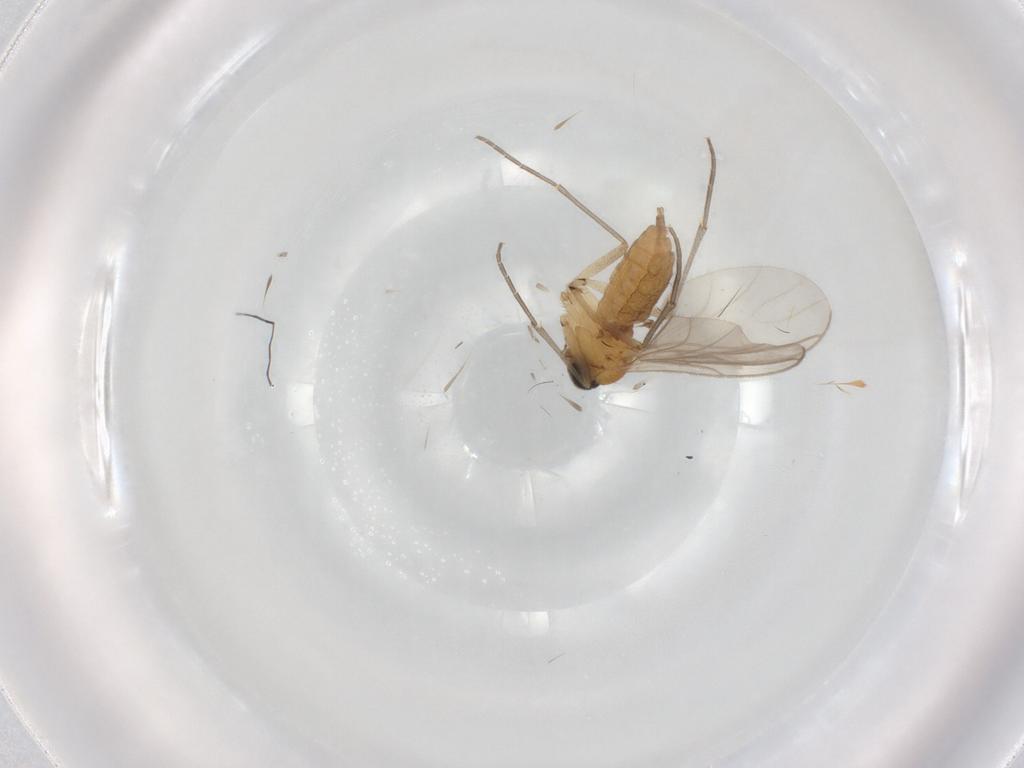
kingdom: Animalia
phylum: Arthropoda
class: Insecta
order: Diptera
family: Sciaridae
